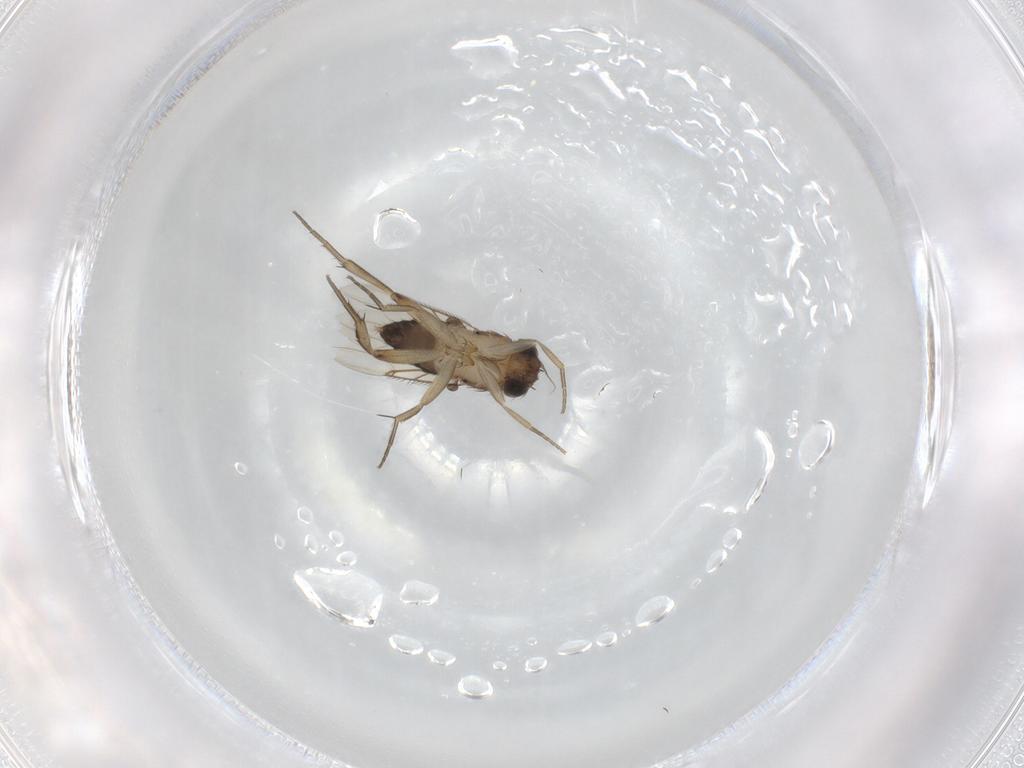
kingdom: Animalia
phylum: Arthropoda
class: Insecta
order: Diptera
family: Phoridae
